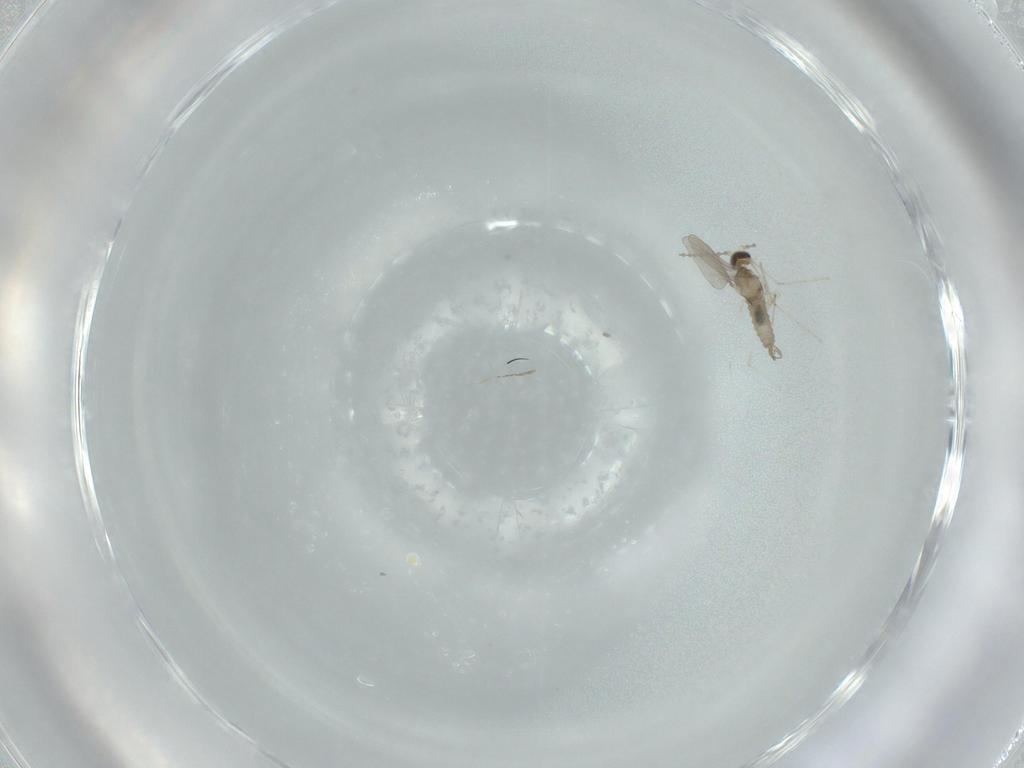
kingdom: Animalia
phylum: Arthropoda
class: Insecta
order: Diptera
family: Cecidomyiidae
